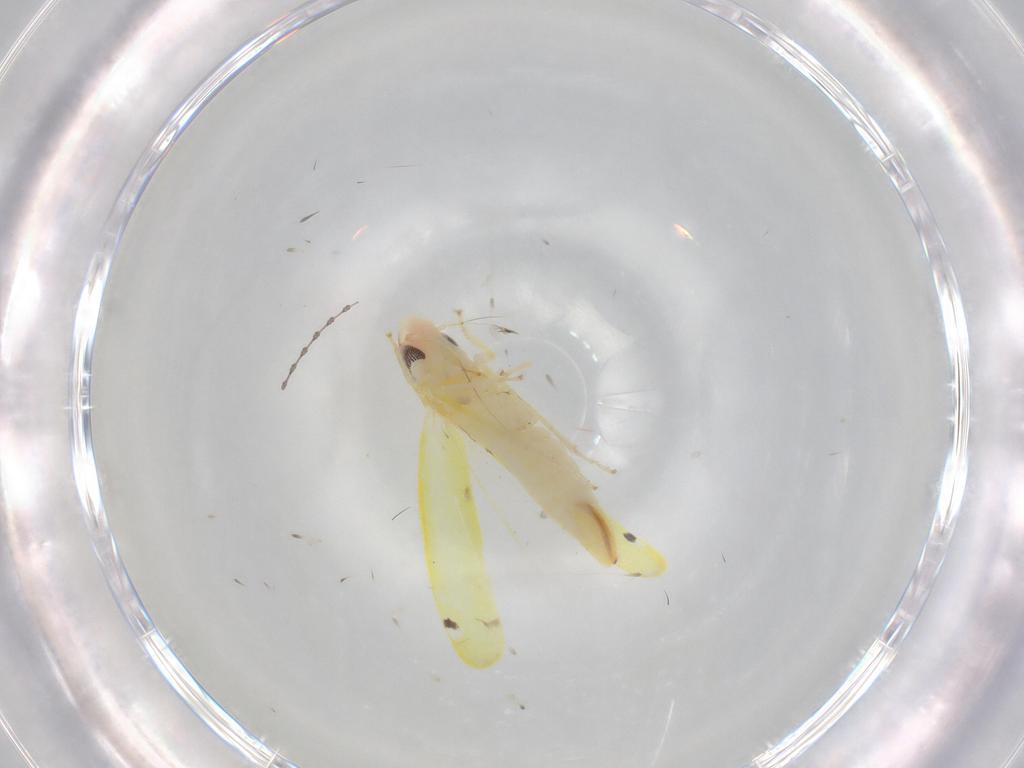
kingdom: Animalia
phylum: Arthropoda
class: Insecta
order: Hemiptera
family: Cicadellidae
